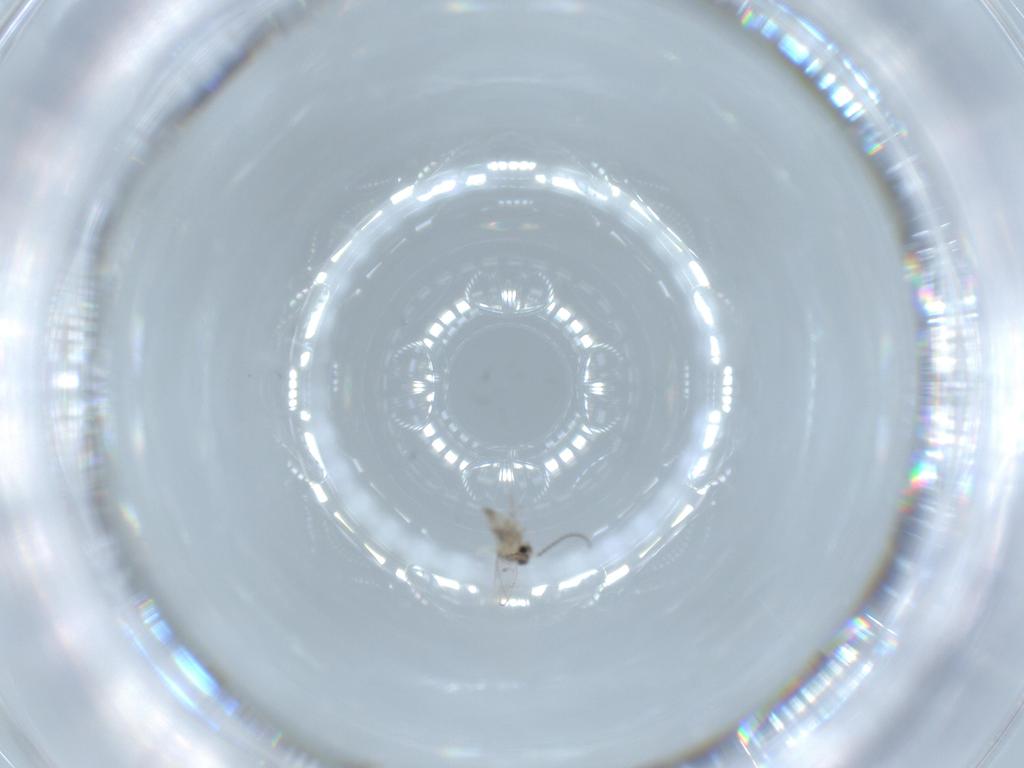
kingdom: Animalia
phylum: Arthropoda
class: Insecta
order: Diptera
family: Cecidomyiidae
